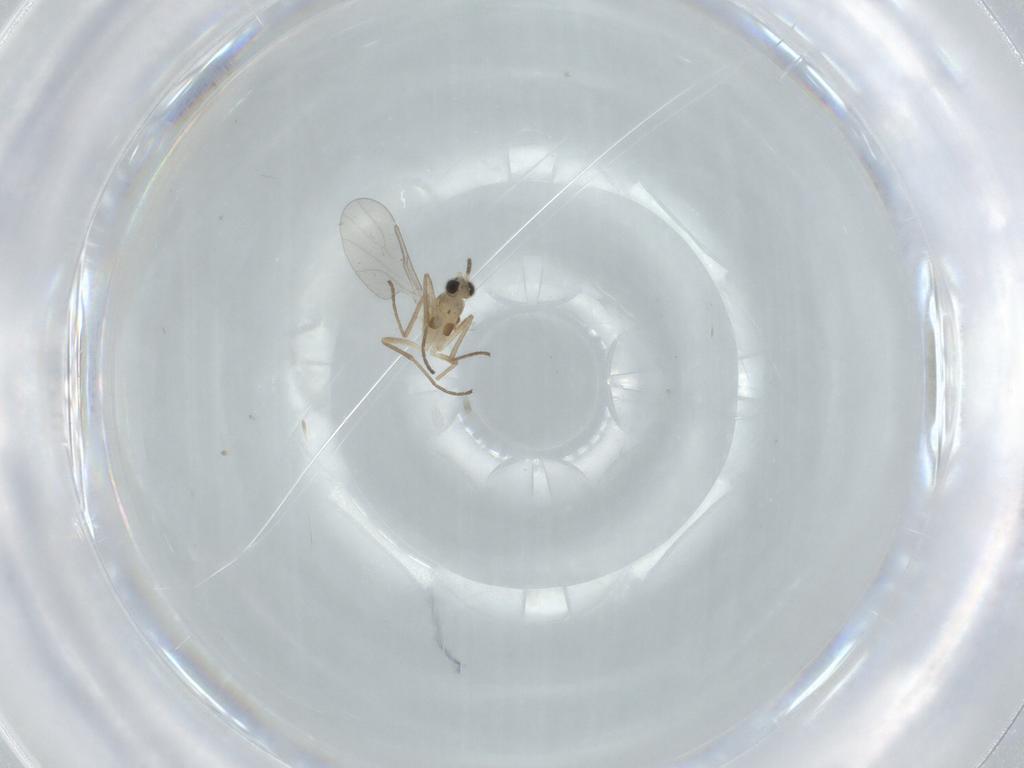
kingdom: Animalia
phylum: Arthropoda
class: Insecta
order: Diptera
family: Cecidomyiidae
